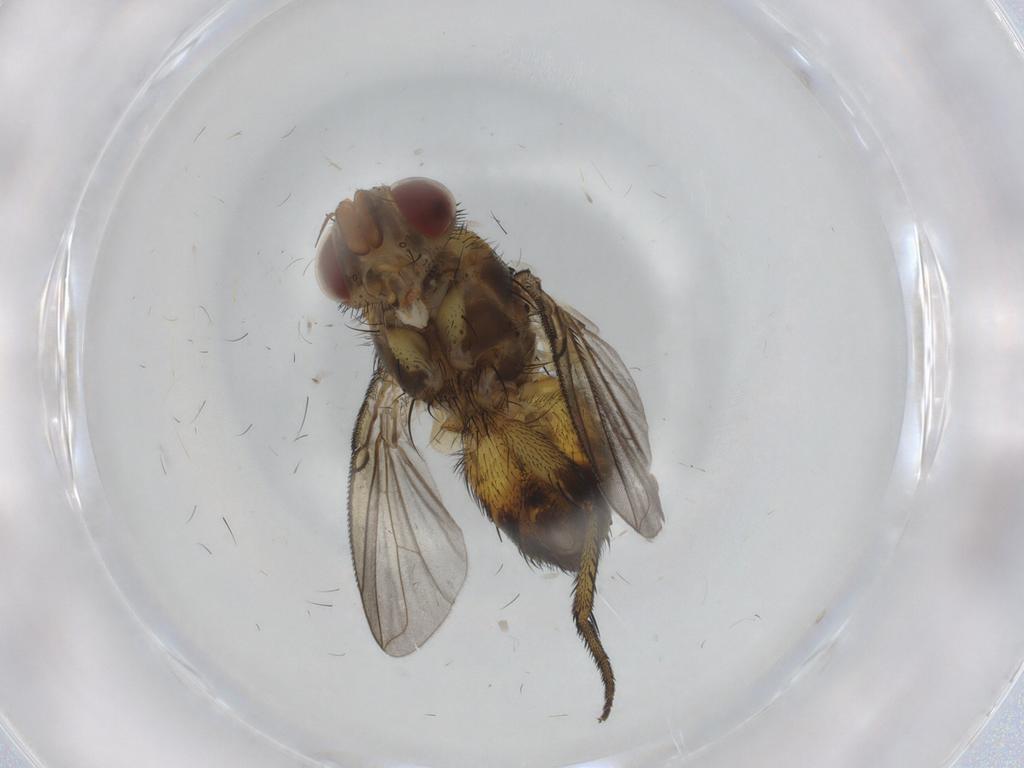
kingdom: Animalia
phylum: Arthropoda
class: Insecta
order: Diptera
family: Tachinidae
